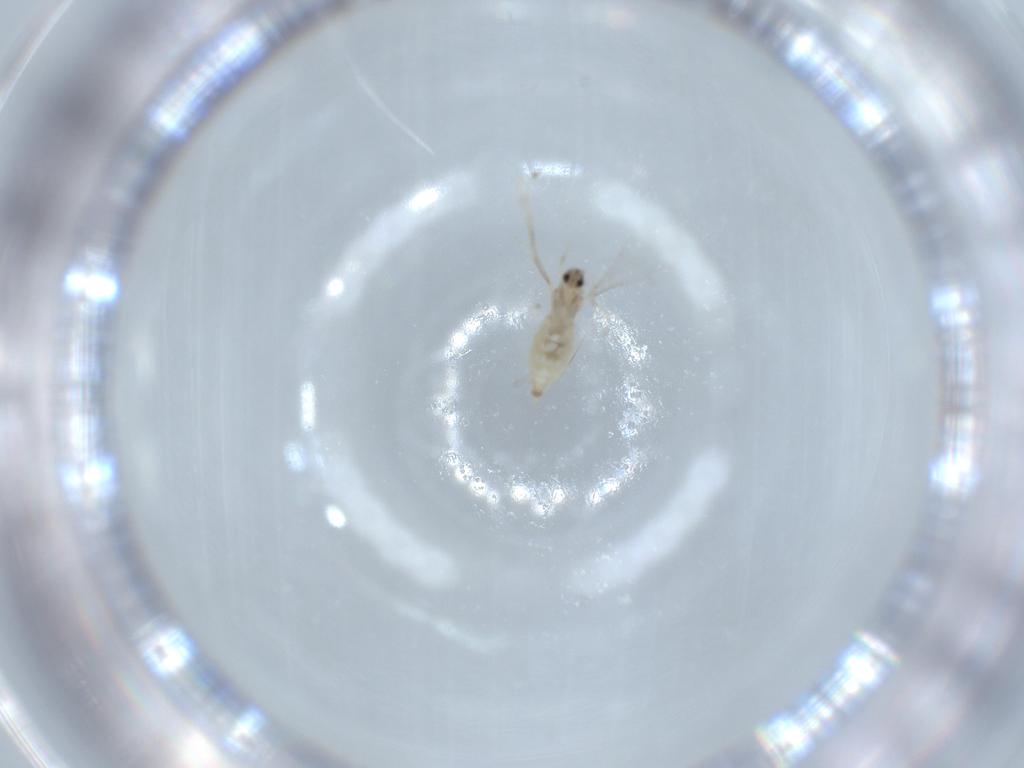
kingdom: Animalia
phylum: Arthropoda
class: Insecta
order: Diptera
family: Cecidomyiidae
